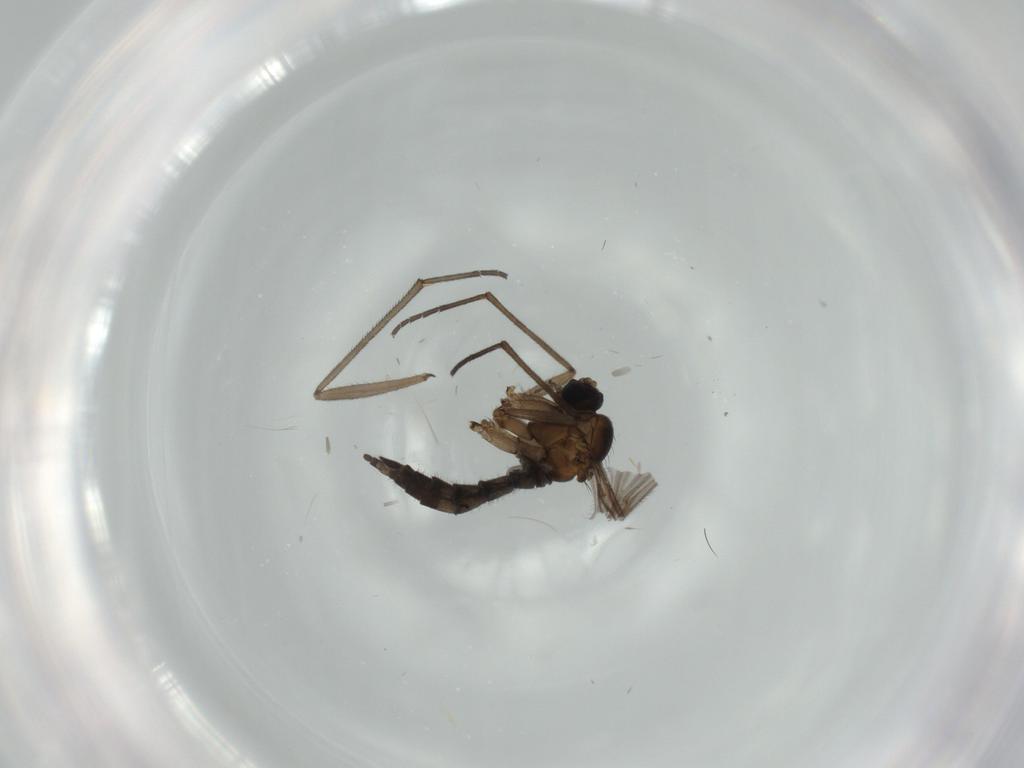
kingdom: Animalia
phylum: Arthropoda
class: Insecta
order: Diptera
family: Sciaridae
